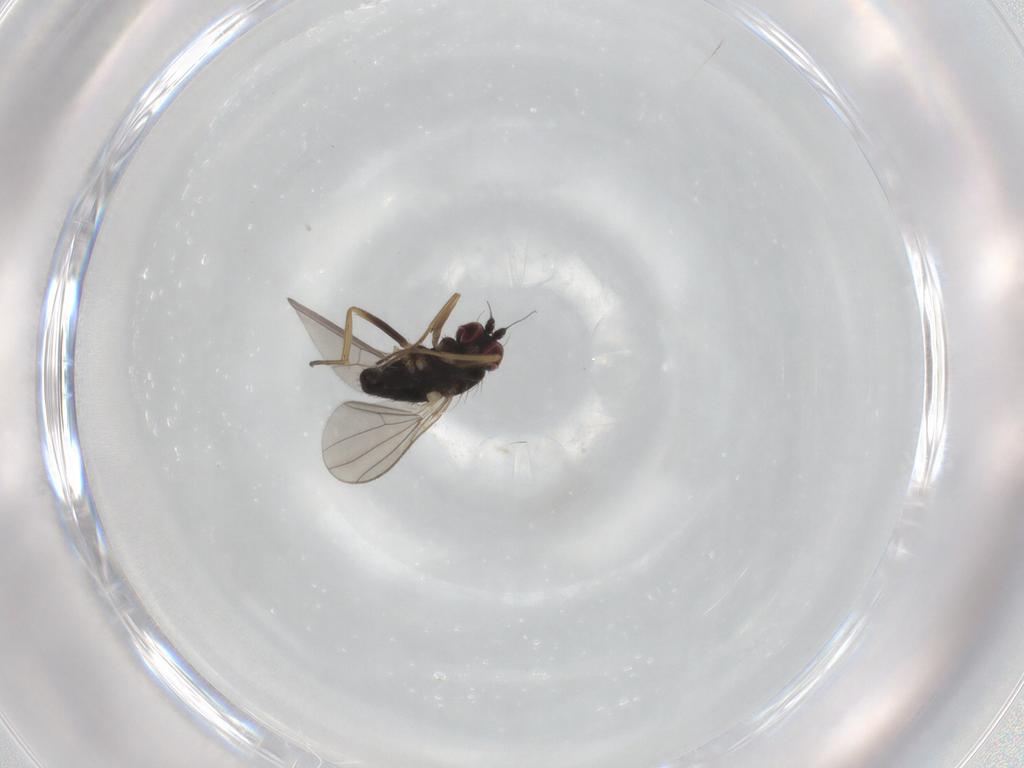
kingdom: Animalia
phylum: Arthropoda
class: Insecta
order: Diptera
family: Dolichopodidae
